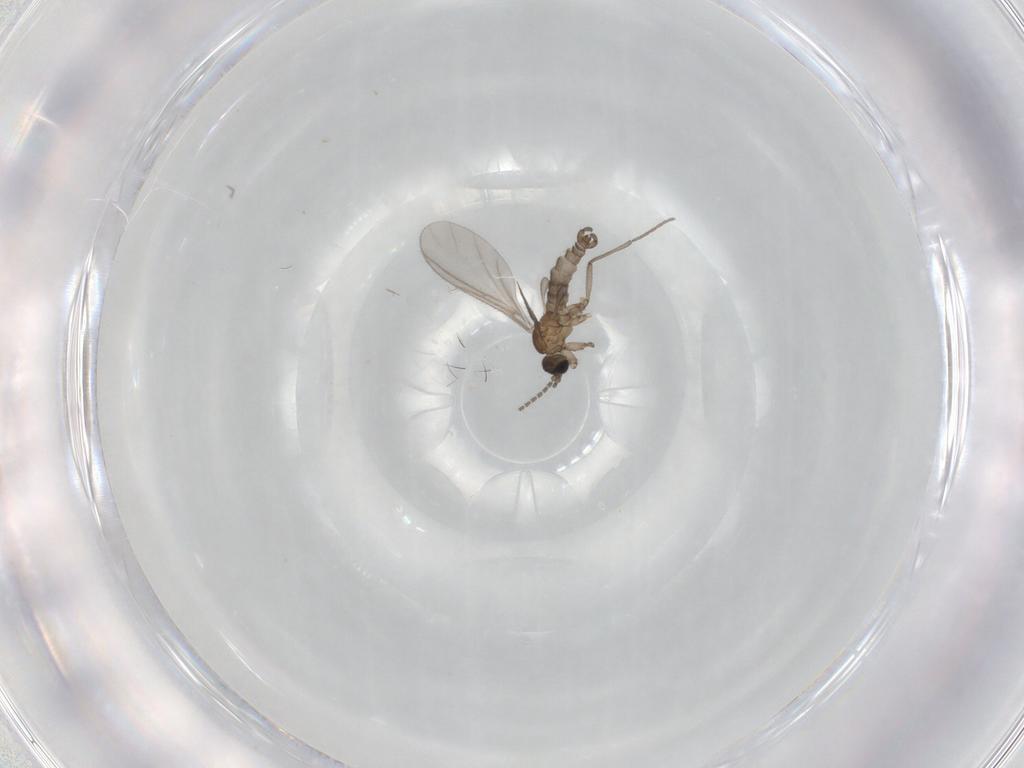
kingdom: Animalia
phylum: Arthropoda
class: Insecta
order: Diptera
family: Sciaridae
